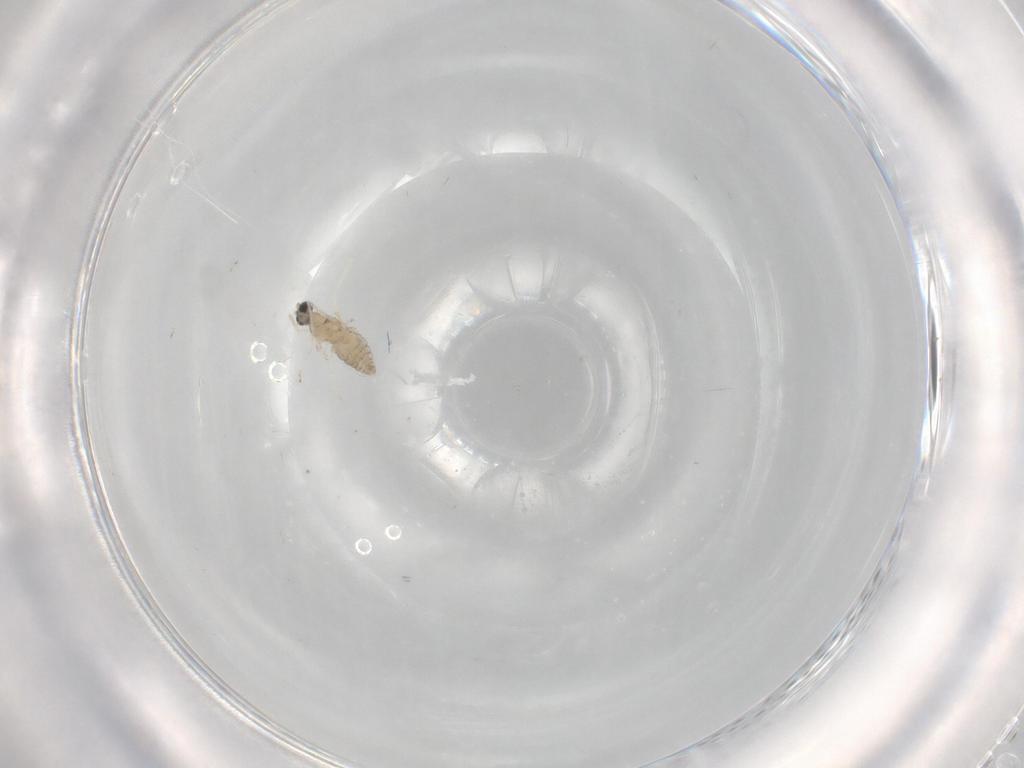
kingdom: Animalia
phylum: Arthropoda
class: Insecta
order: Diptera
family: Cecidomyiidae
